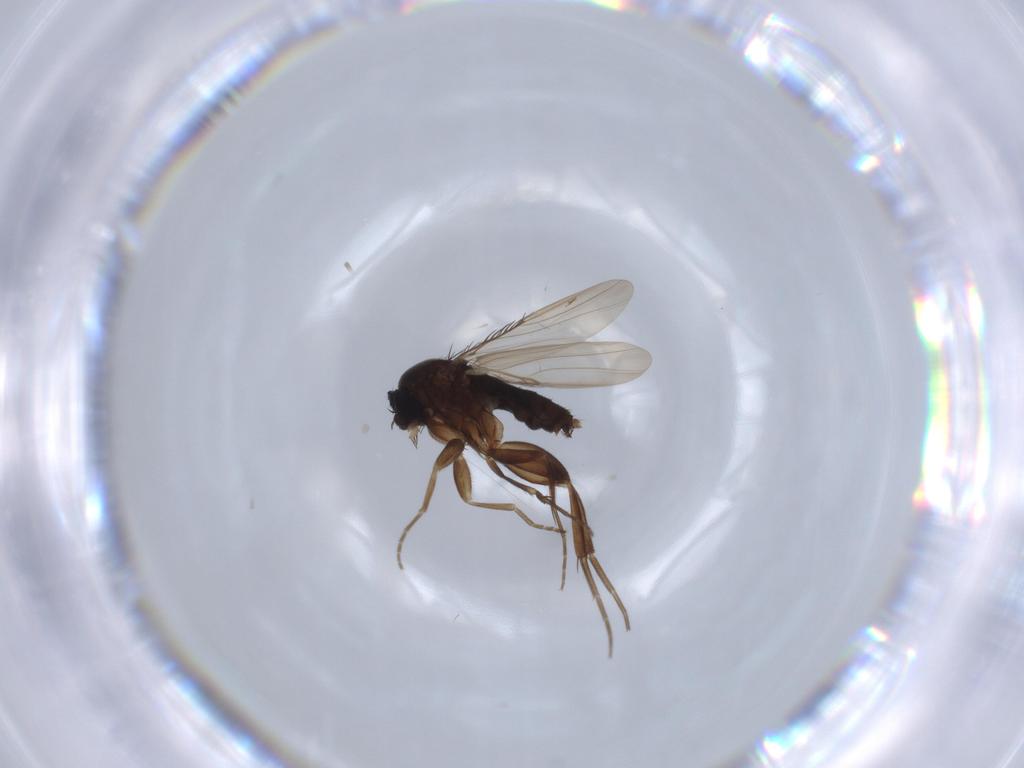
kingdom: Animalia
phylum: Arthropoda
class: Insecta
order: Diptera
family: Phoridae
